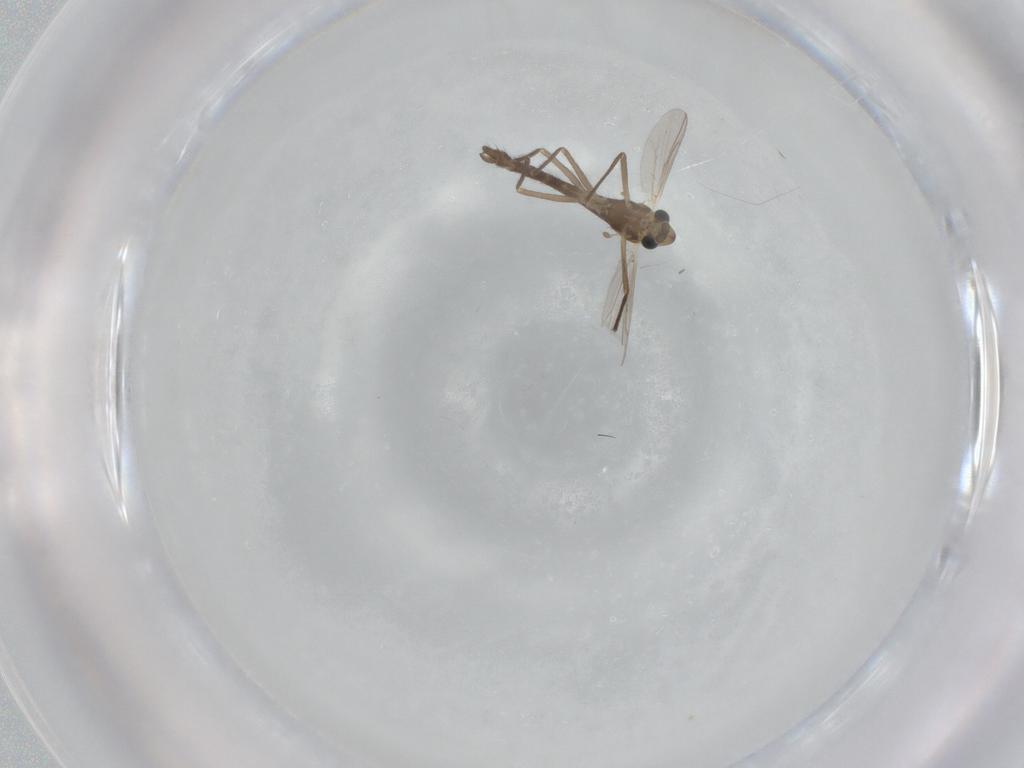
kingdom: Animalia
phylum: Arthropoda
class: Insecta
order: Diptera
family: Chironomidae
